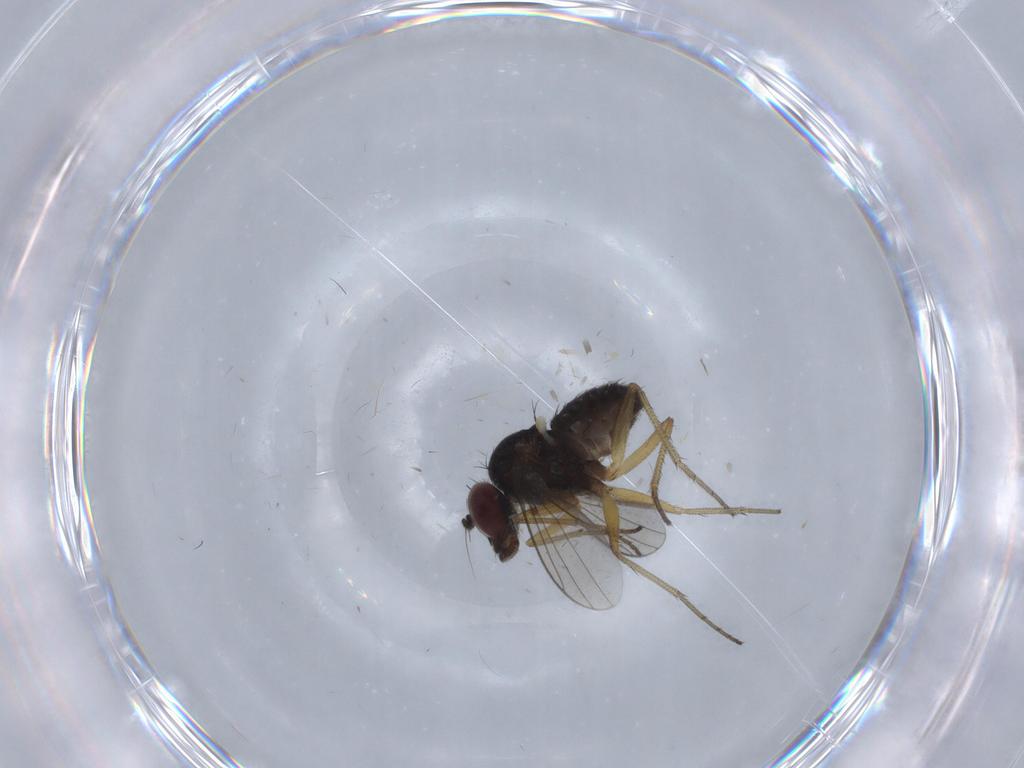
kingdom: Animalia
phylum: Arthropoda
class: Insecta
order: Diptera
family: Dolichopodidae
